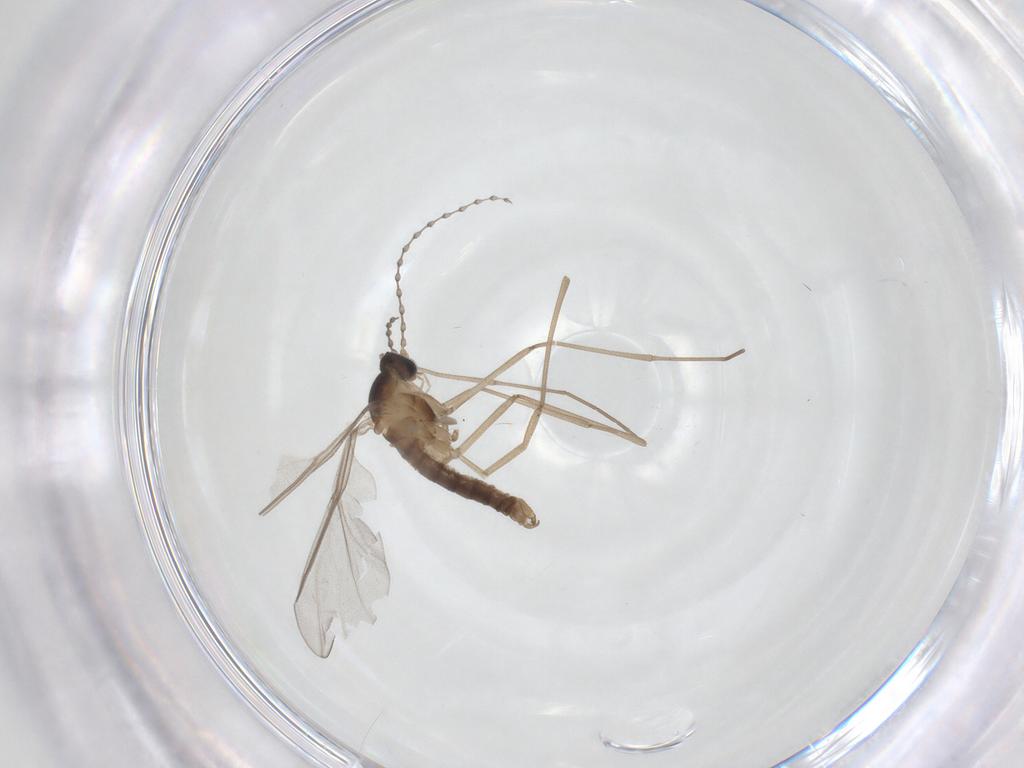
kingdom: Animalia
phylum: Arthropoda
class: Insecta
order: Diptera
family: Cecidomyiidae
